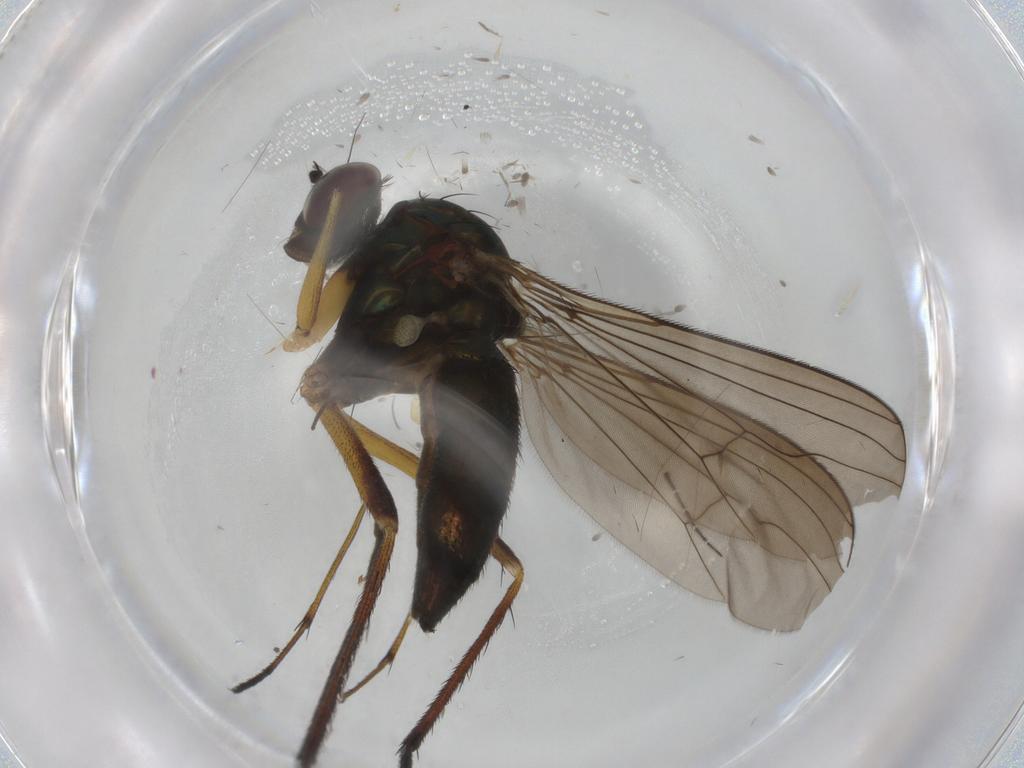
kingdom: Animalia
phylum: Arthropoda
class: Insecta
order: Diptera
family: Dolichopodidae
